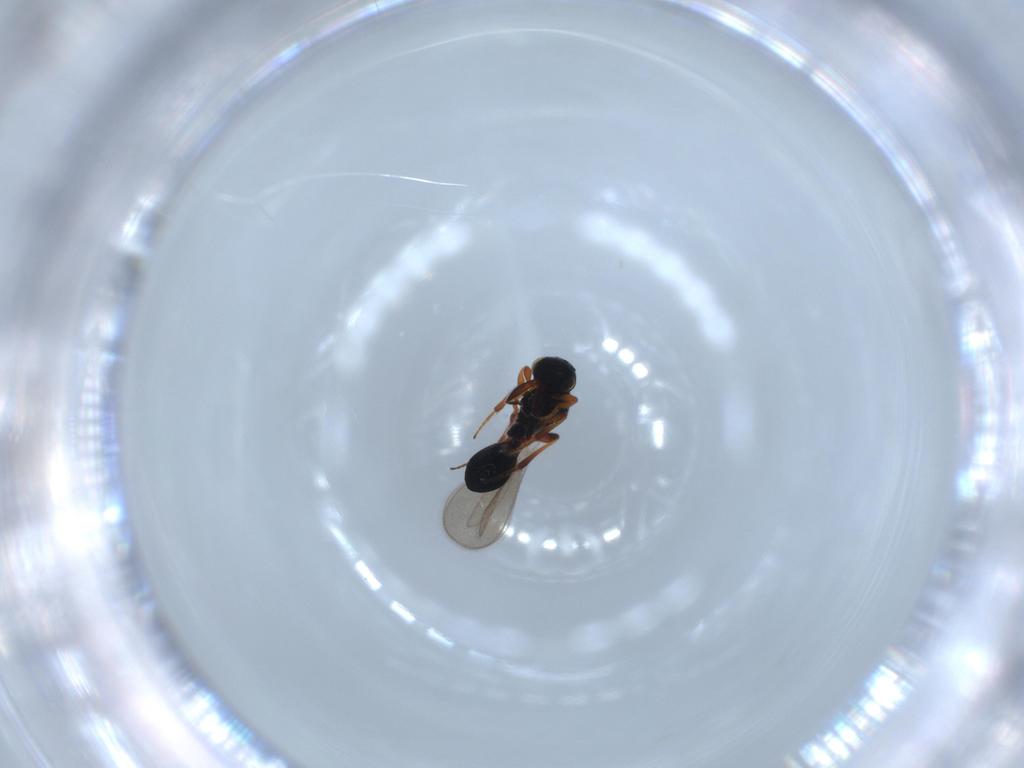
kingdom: Animalia
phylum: Arthropoda
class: Insecta
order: Hymenoptera
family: Platygastridae
